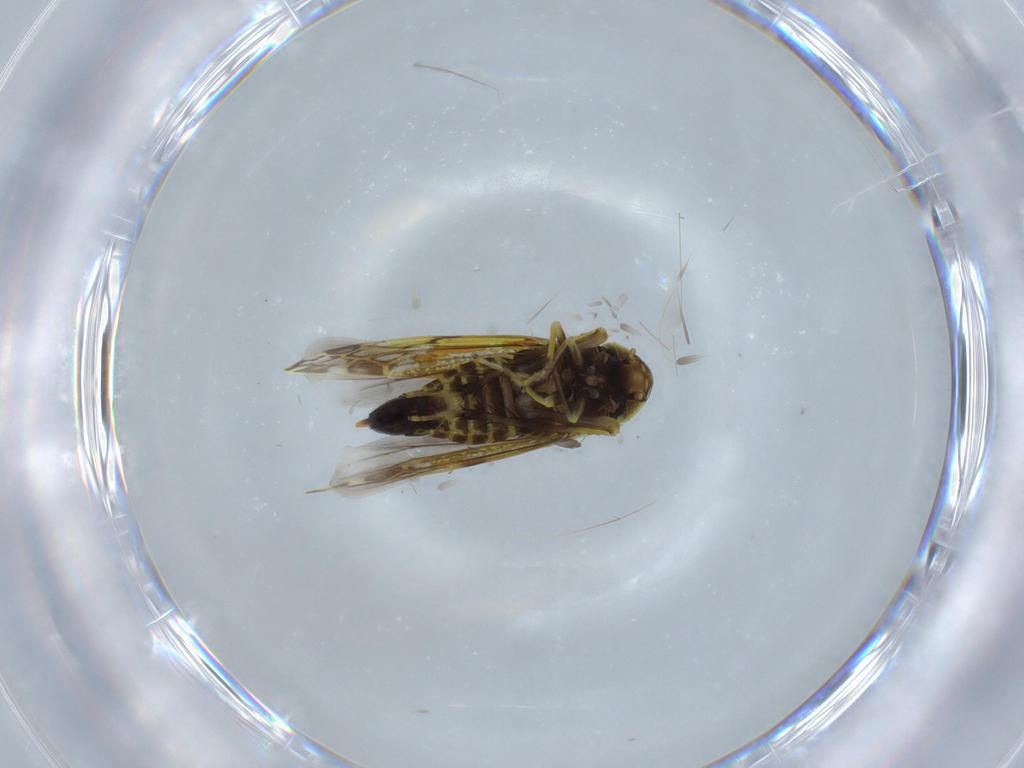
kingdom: Animalia
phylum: Arthropoda
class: Insecta
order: Hemiptera
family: Cicadellidae
